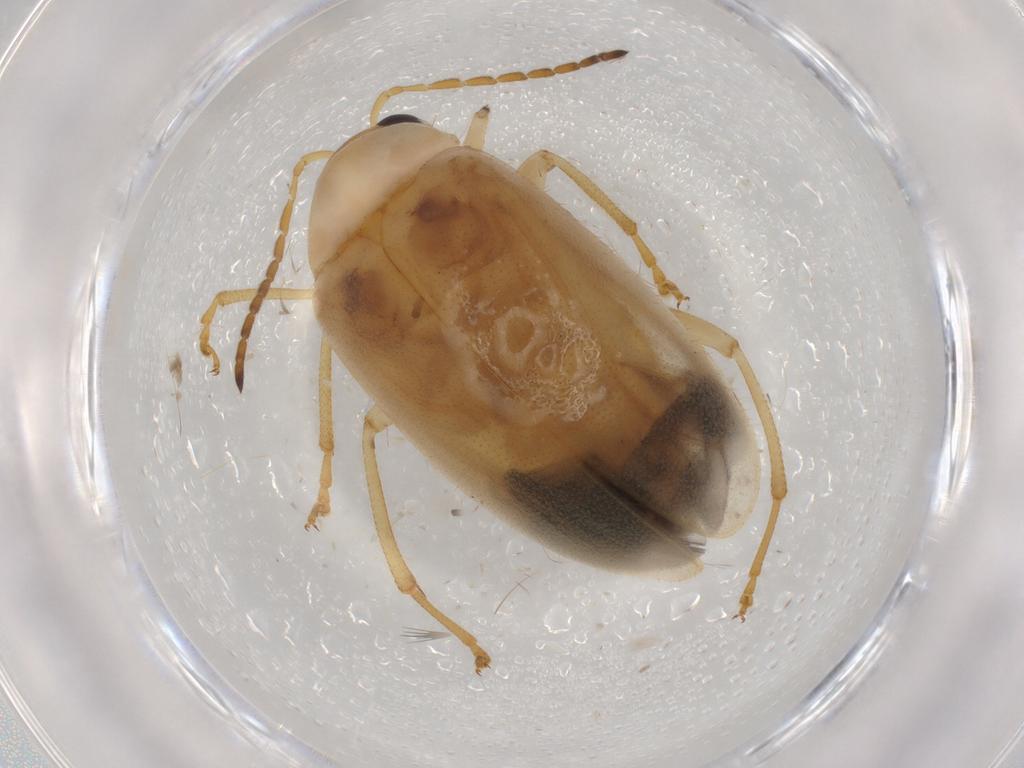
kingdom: Animalia
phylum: Arthropoda
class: Insecta
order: Coleoptera
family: Chrysomelidae
